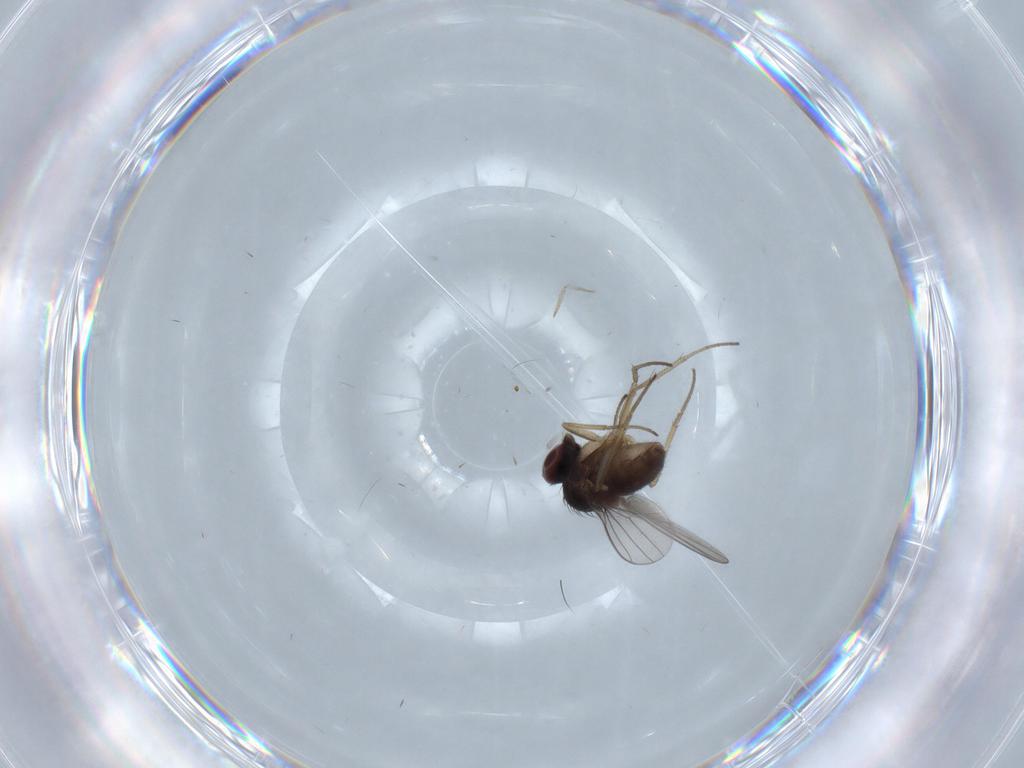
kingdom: Animalia
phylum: Arthropoda
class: Insecta
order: Diptera
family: Dolichopodidae
